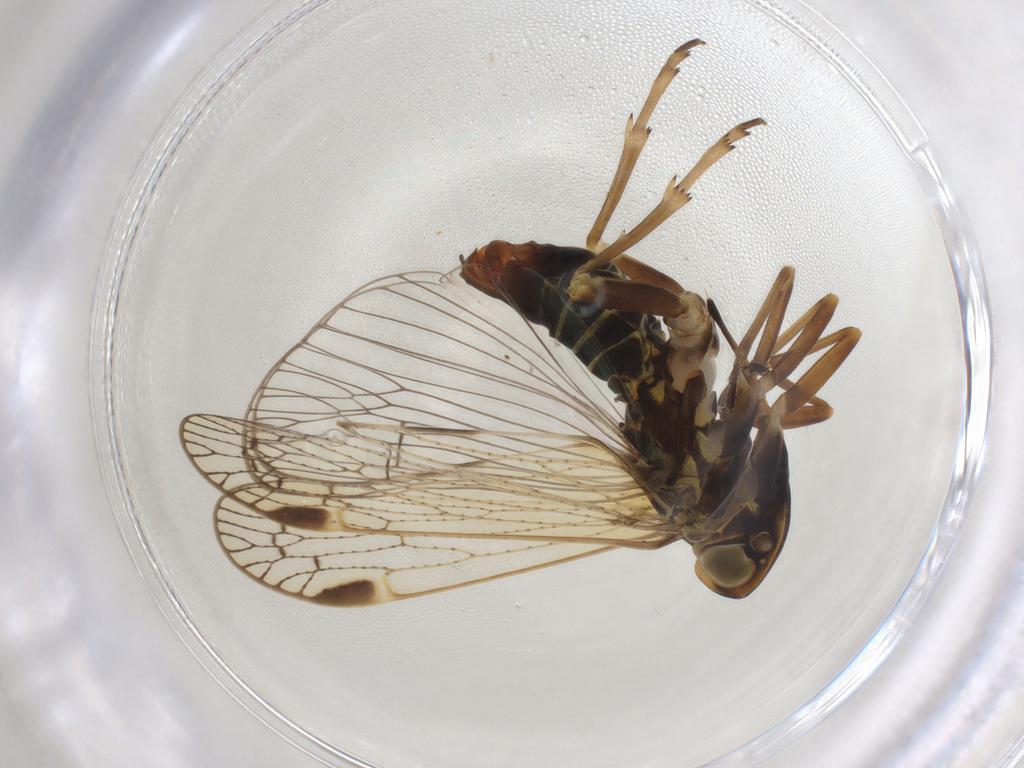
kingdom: Animalia
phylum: Arthropoda
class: Insecta
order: Hemiptera
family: Cixiidae
